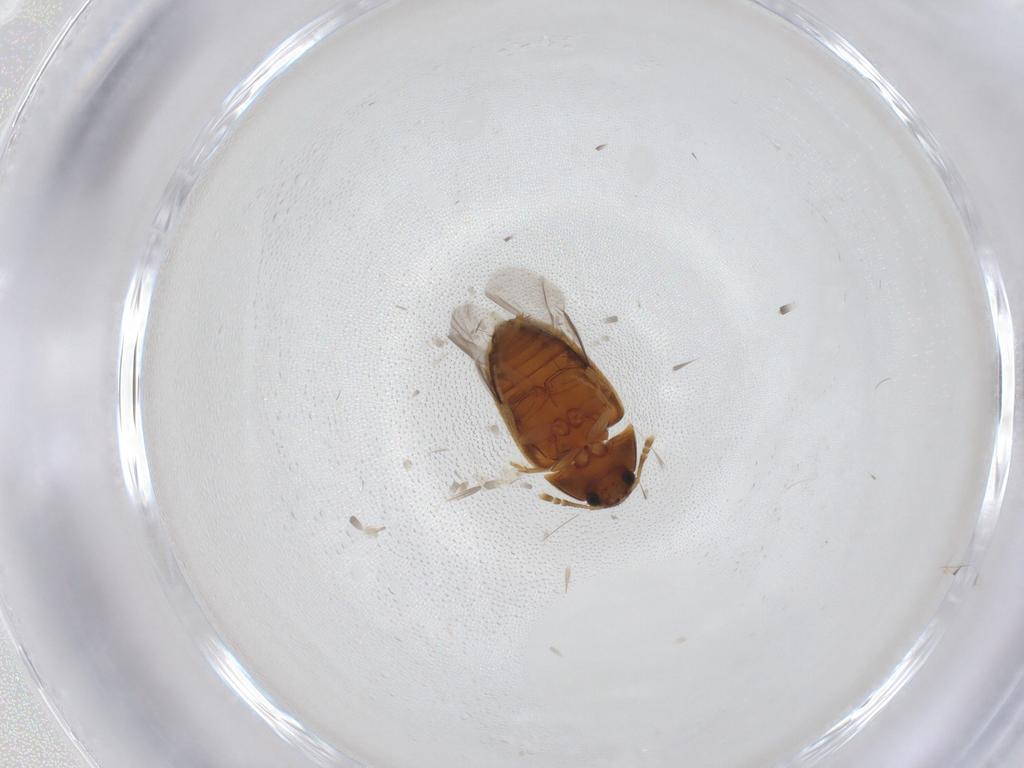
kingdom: Animalia
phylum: Arthropoda
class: Insecta
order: Coleoptera
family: Mycetophagidae
